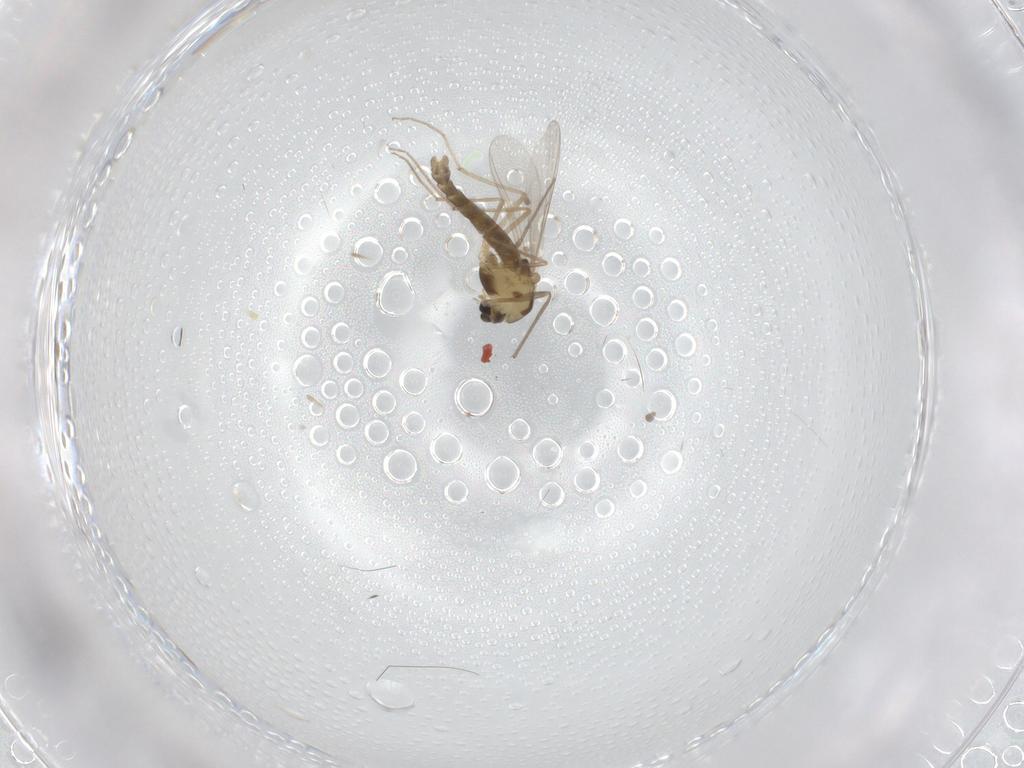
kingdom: Animalia
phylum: Arthropoda
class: Insecta
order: Diptera
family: Chironomidae
